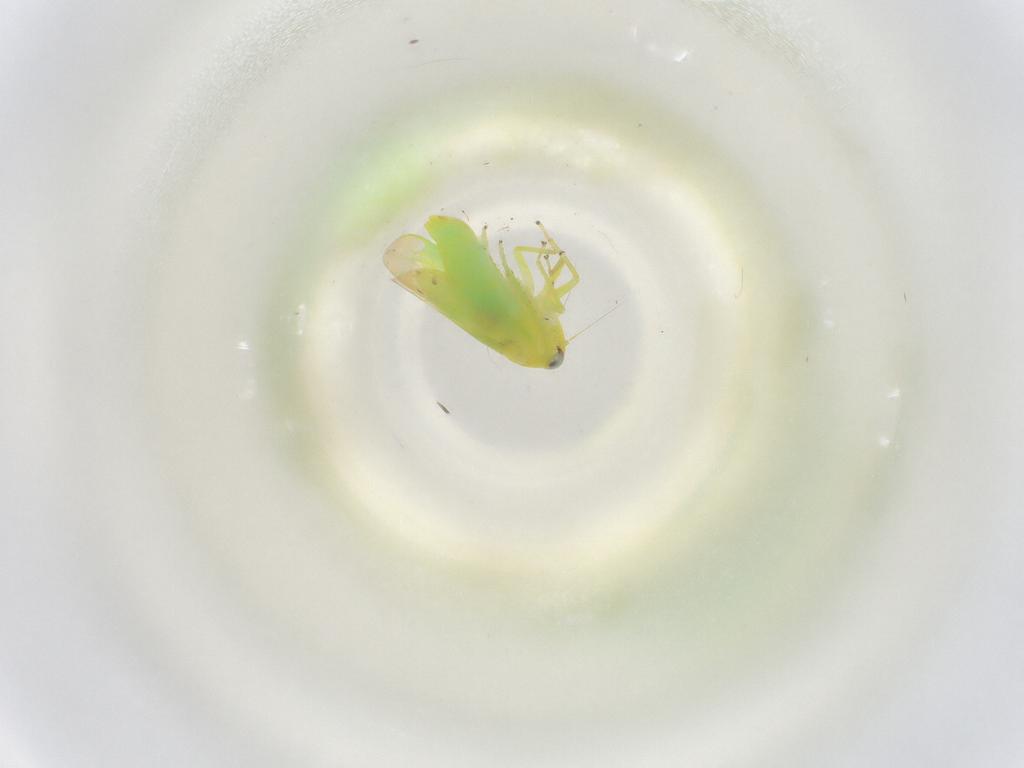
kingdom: Animalia
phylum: Arthropoda
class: Insecta
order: Hemiptera
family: Cicadellidae
